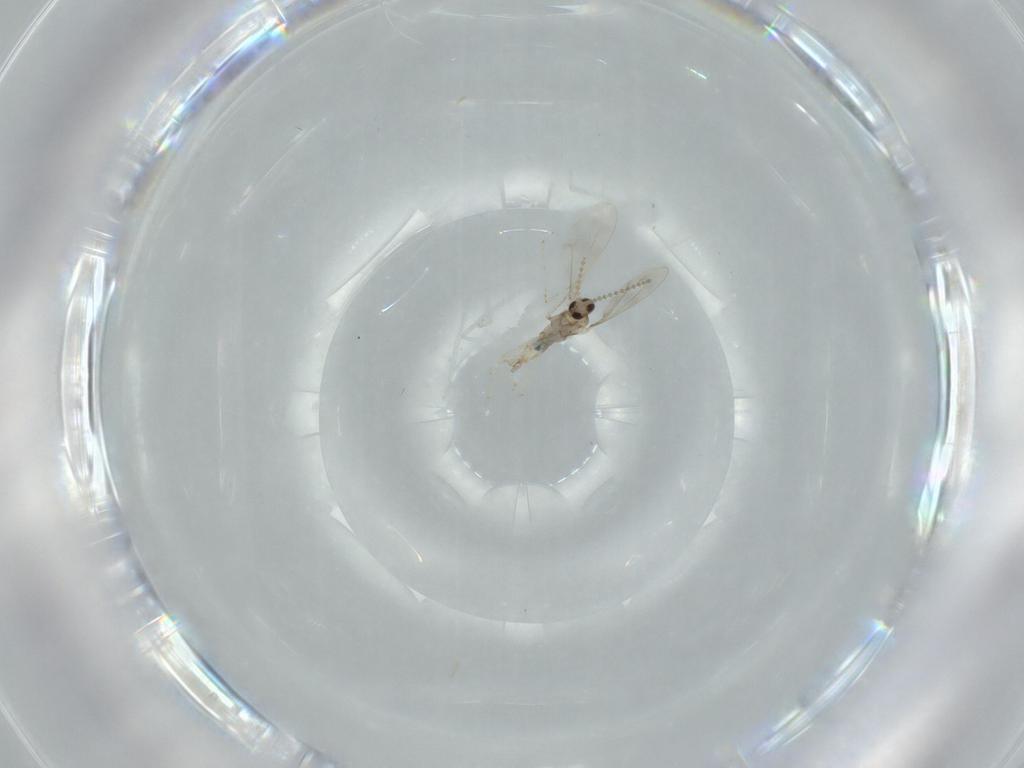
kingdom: Animalia
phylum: Arthropoda
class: Insecta
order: Diptera
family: Cecidomyiidae
